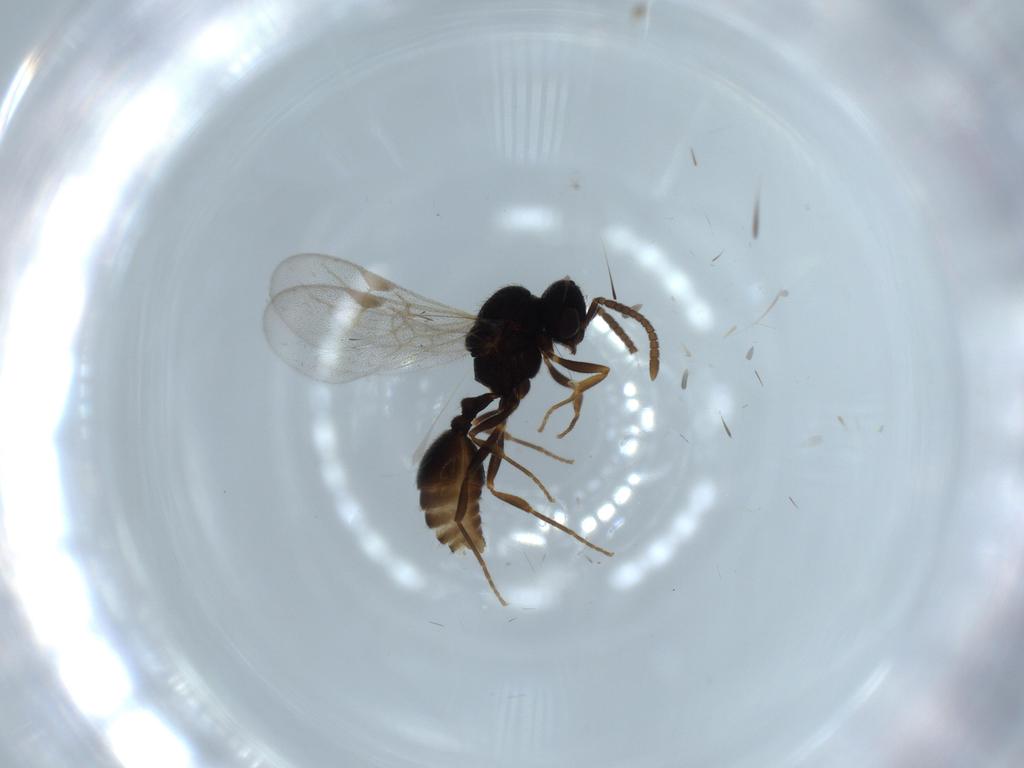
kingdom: Animalia
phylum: Arthropoda
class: Insecta
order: Hymenoptera
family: Formicidae
